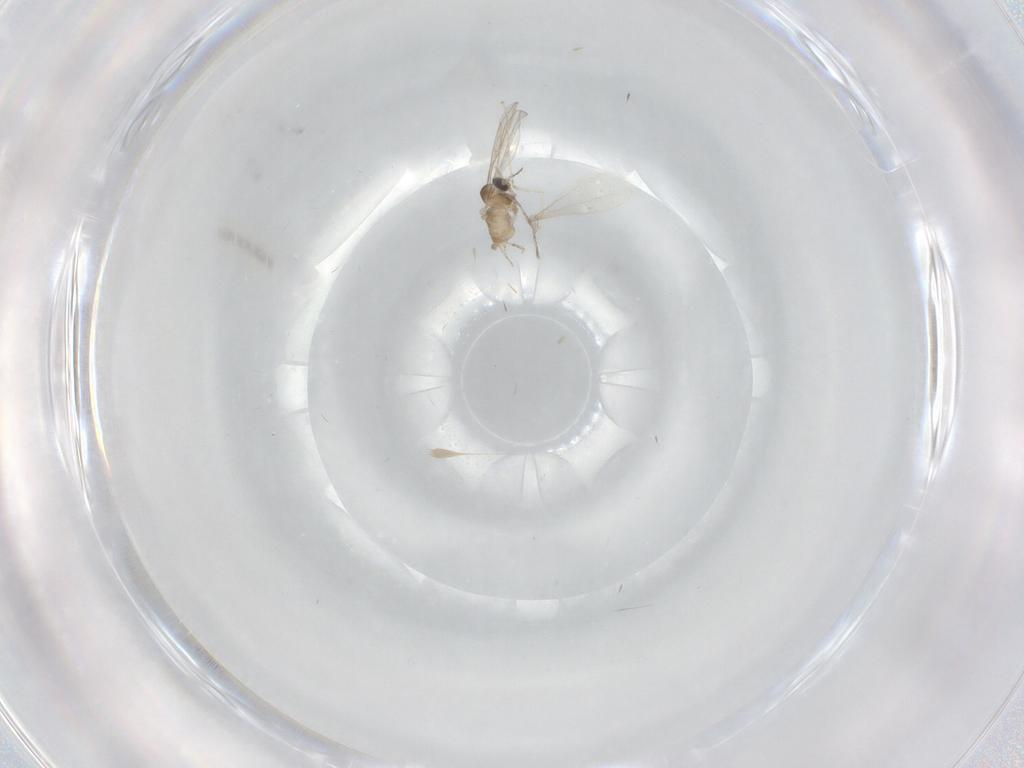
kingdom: Animalia
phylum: Arthropoda
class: Insecta
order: Diptera
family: Cecidomyiidae
